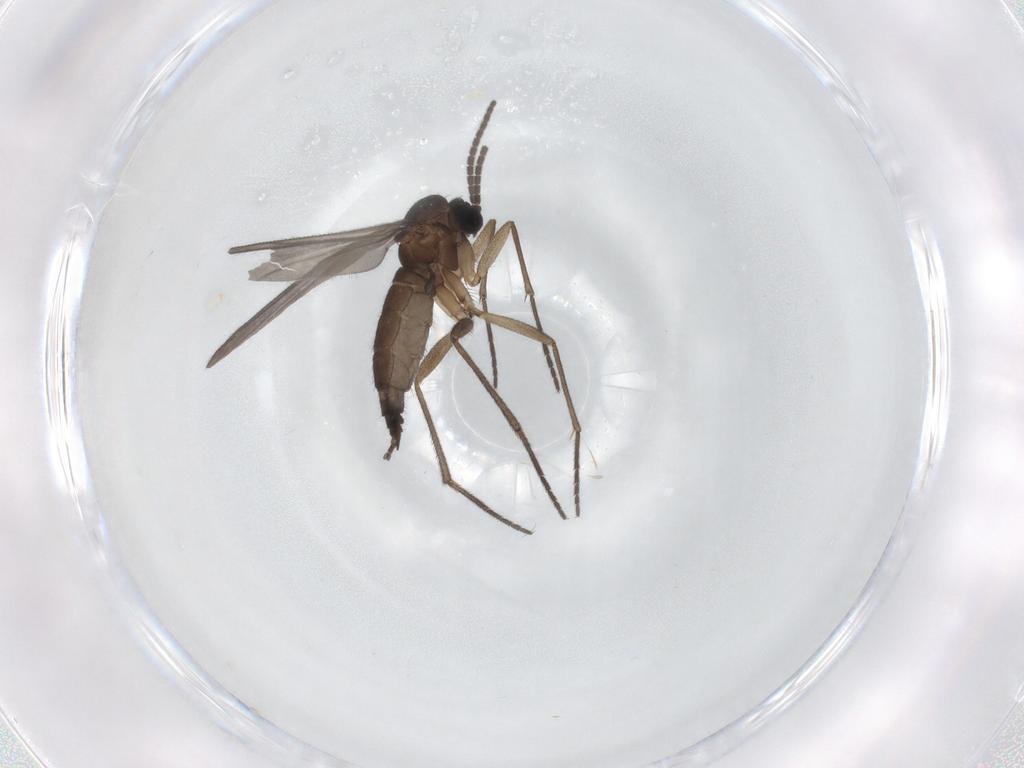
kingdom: Animalia
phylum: Arthropoda
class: Insecta
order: Diptera
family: Sciaridae
